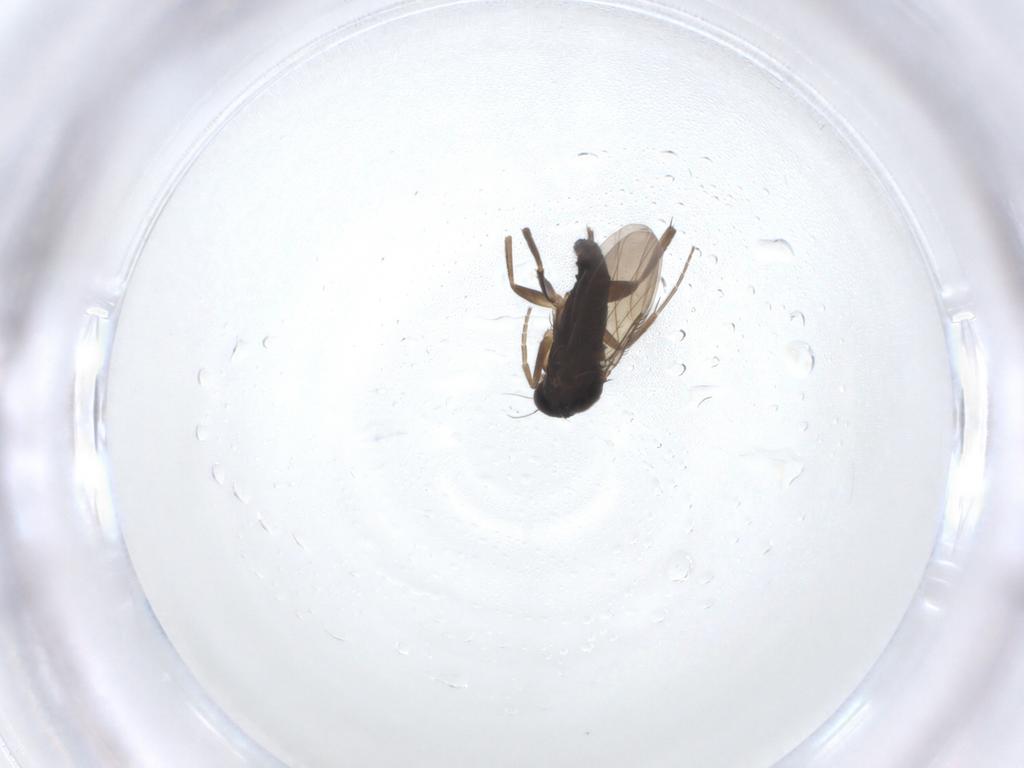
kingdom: Animalia
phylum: Arthropoda
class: Insecta
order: Diptera
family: Phoridae
